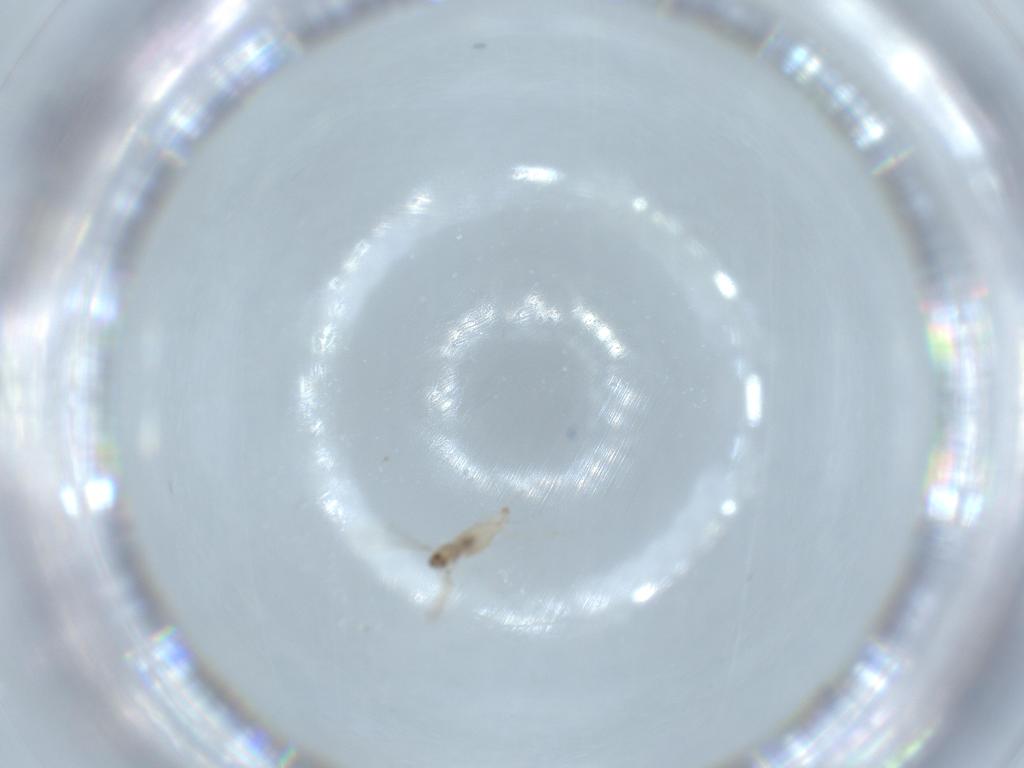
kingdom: Animalia
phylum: Arthropoda
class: Insecta
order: Diptera
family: Cecidomyiidae
